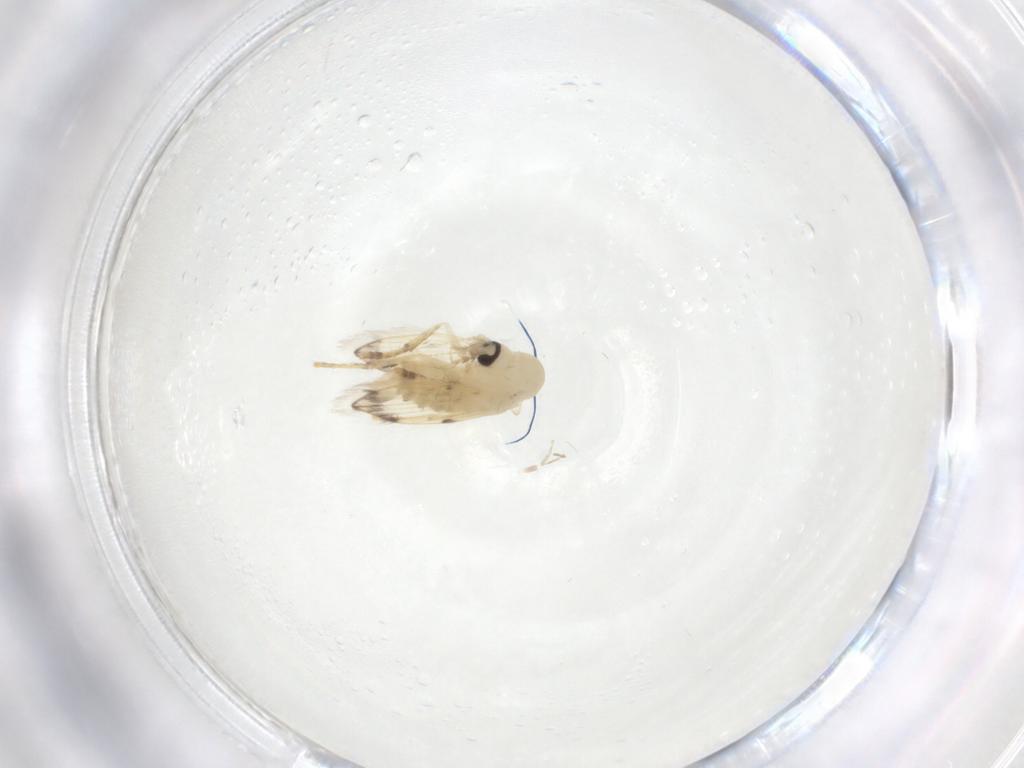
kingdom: Animalia
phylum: Arthropoda
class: Insecta
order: Diptera
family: Psychodidae
